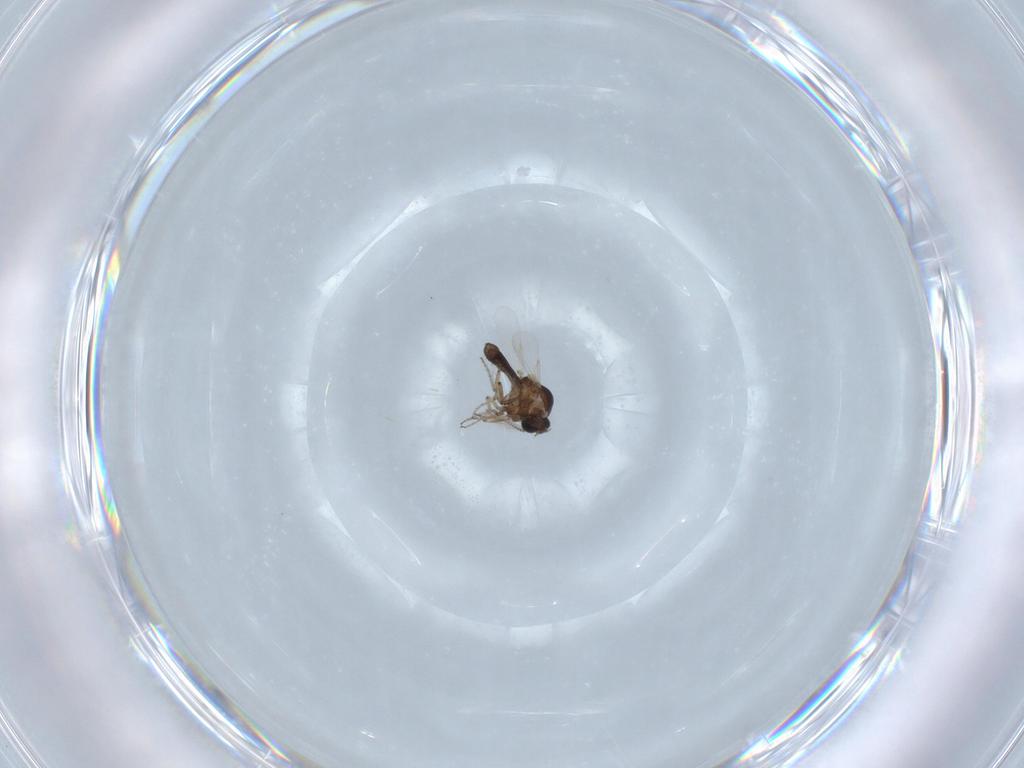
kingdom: Animalia
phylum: Arthropoda
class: Insecta
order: Diptera
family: Ceratopogonidae
